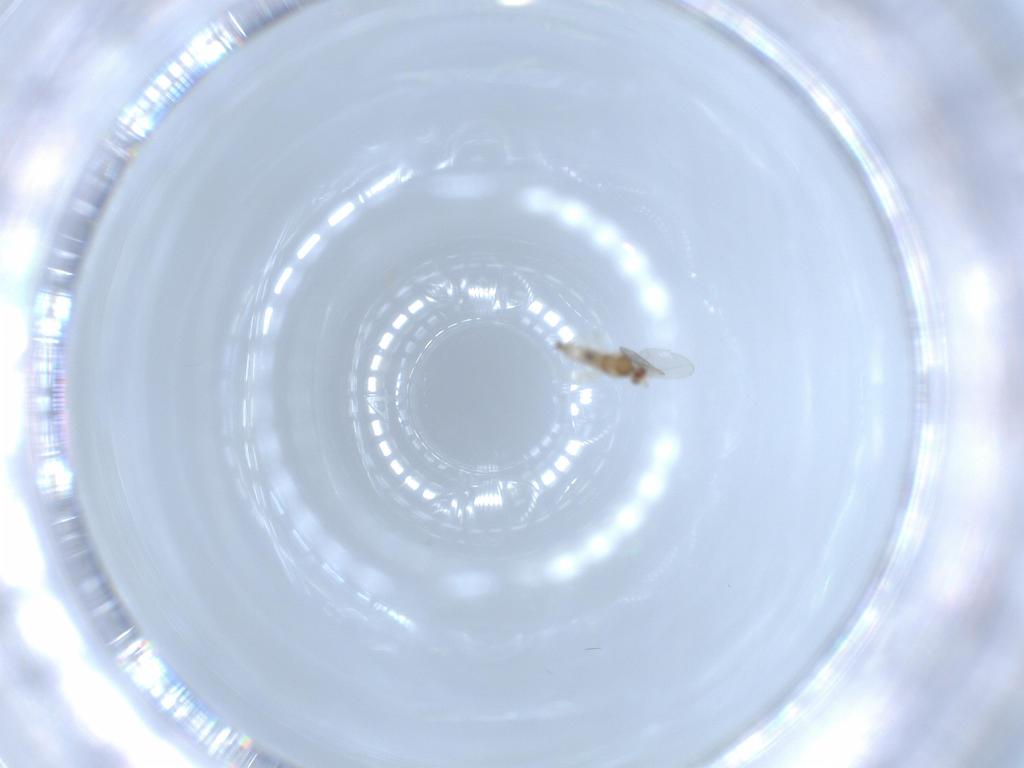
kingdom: Animalia
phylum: Arthropoda
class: Insecta
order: Diptera
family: Cecidomyiidae
